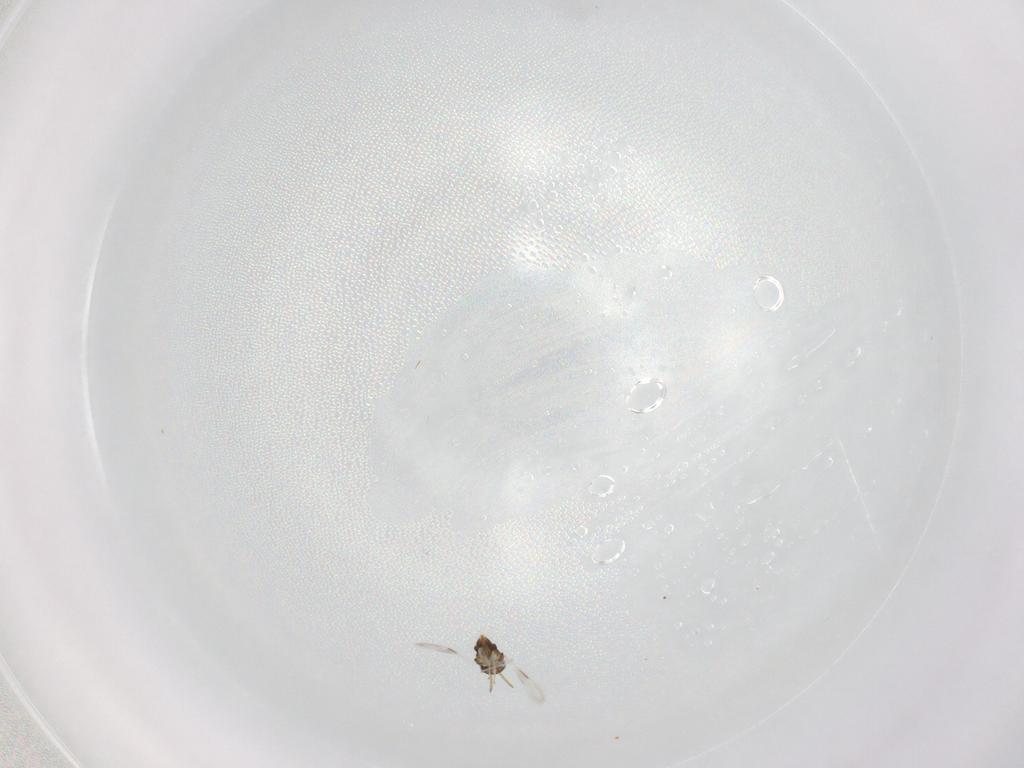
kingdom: Animalia
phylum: Arthropoda
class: Insecta
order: Hymenoptera
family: Aphelinidae
